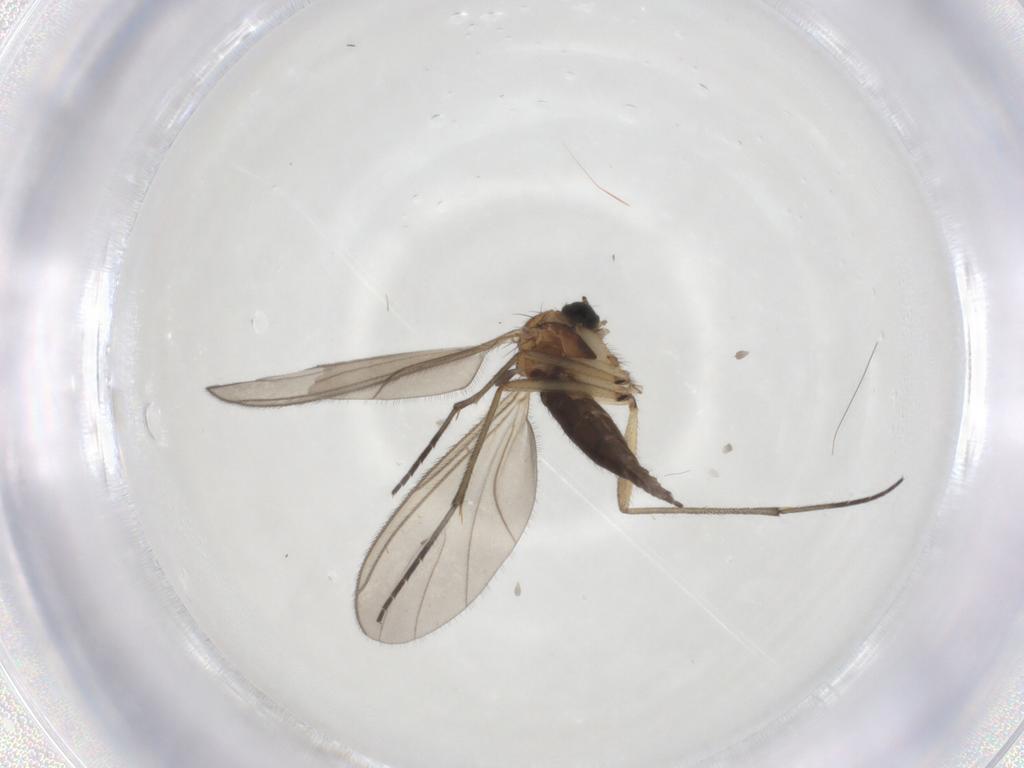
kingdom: Animalia
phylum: Arthropoda
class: Insecta
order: Diptera
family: Sciaridae
